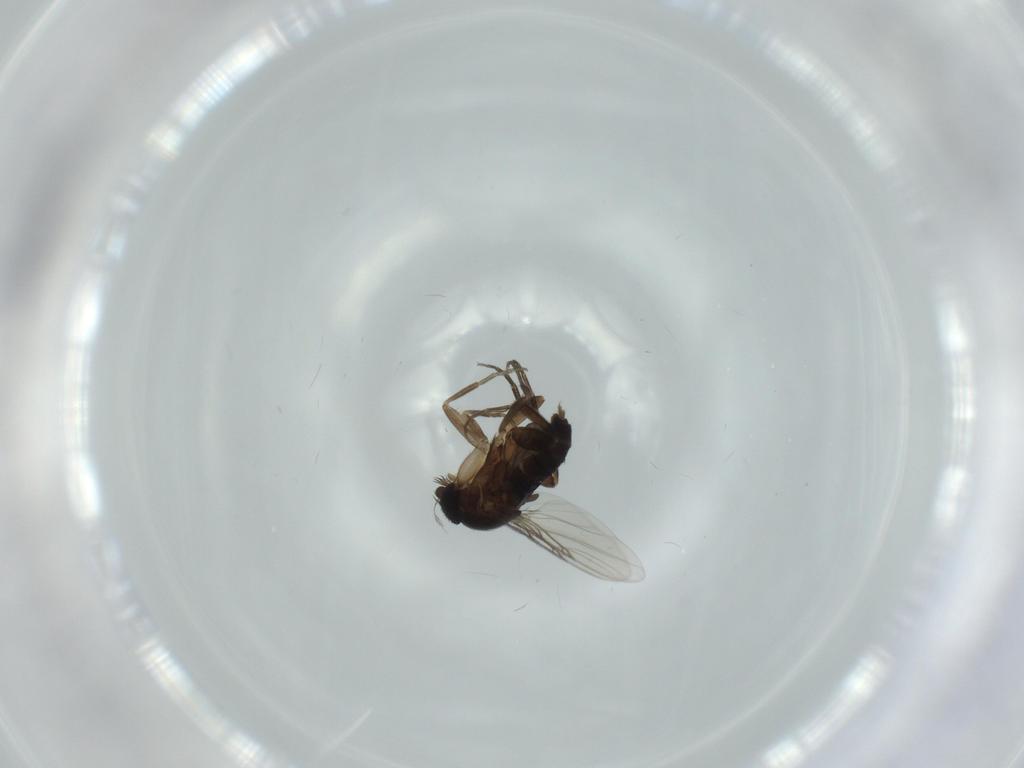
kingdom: Animalia
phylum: Arthropoda
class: Insecta
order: Diptera
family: Phoridae
